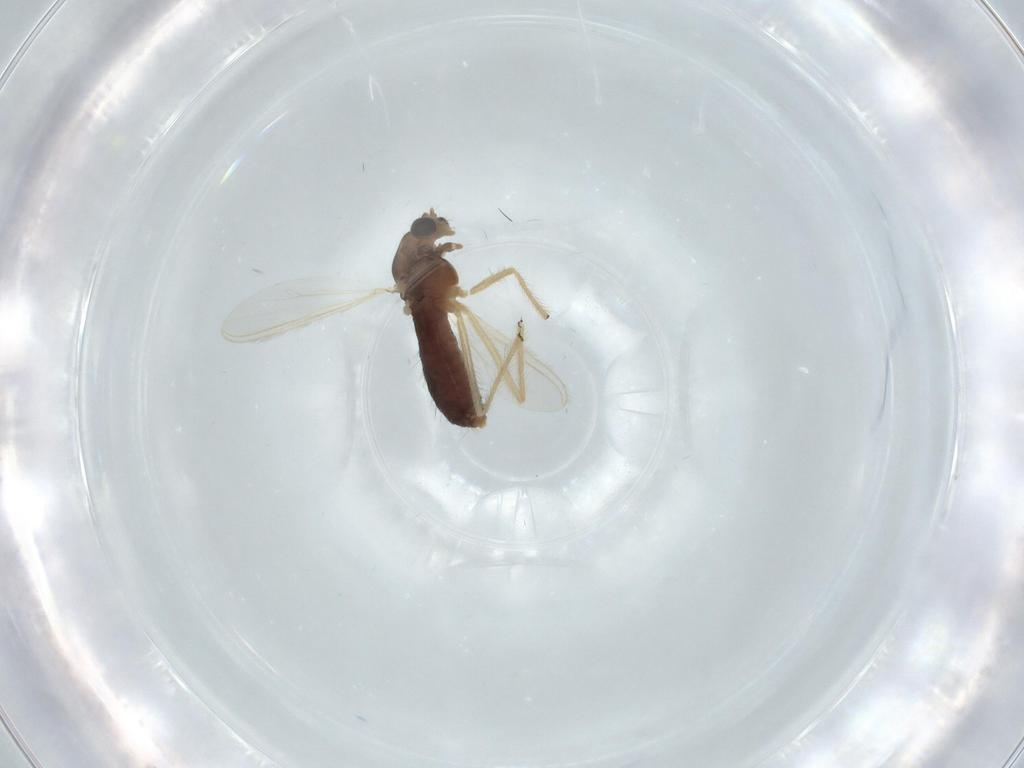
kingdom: Animalia
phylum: Arthropoda
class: Insecta
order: Diptera
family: Chironomidae
